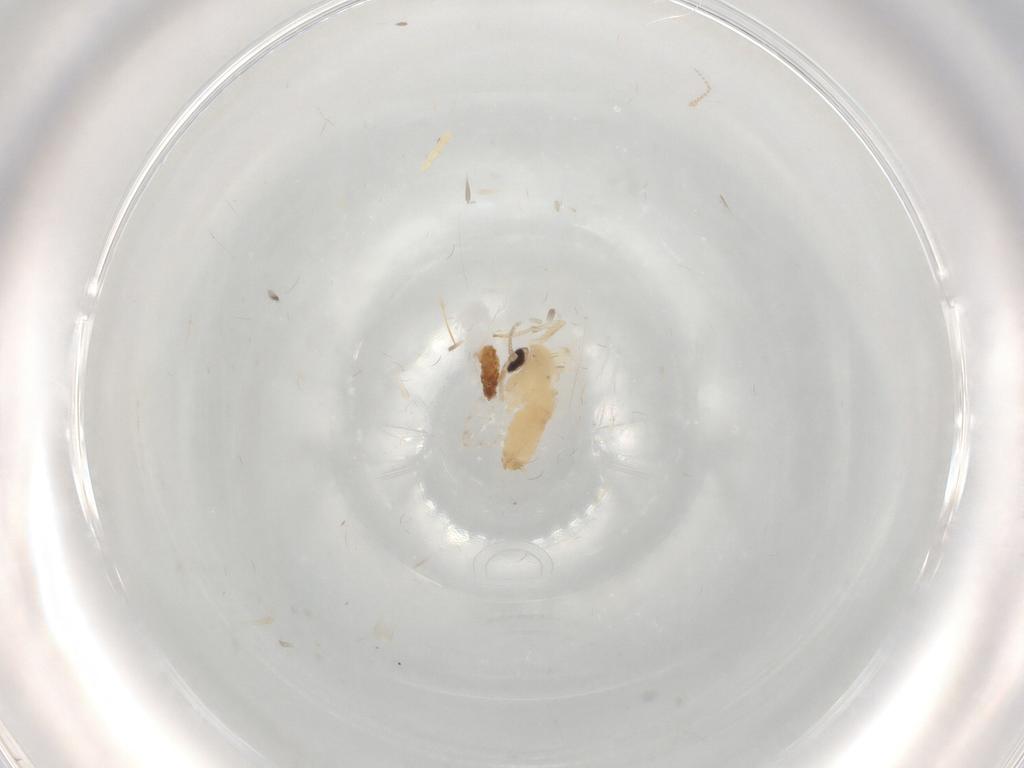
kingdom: Animalia
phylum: Arthropoda
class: Insecta
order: Diptera
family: Psychodidae
